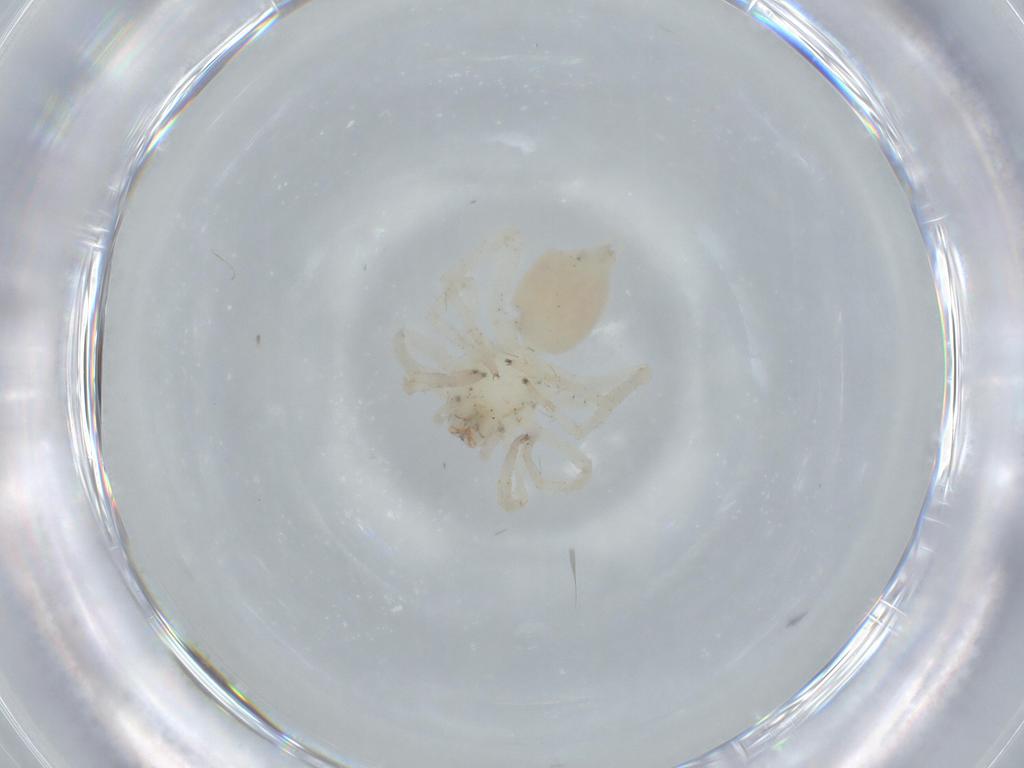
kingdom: Animalia
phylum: Arthropoda
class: Arachnida
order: Araneae
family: Clubionidae
